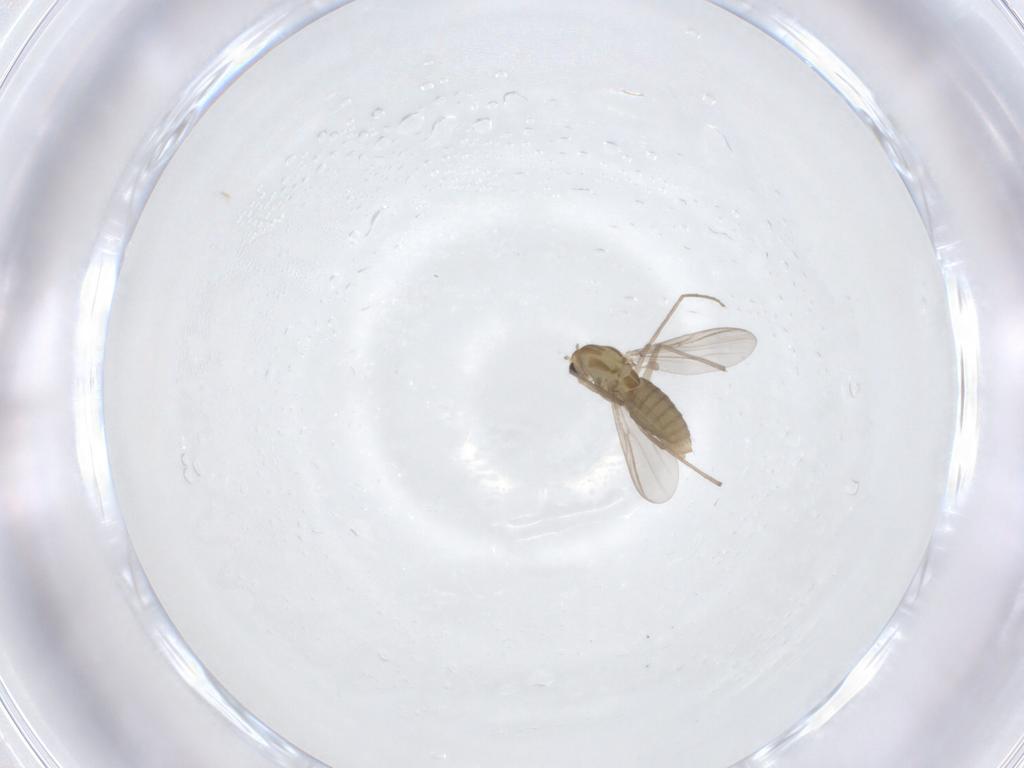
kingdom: Animalia
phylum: Arthropoda
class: Insecta
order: Diptera
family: Chironomidae
